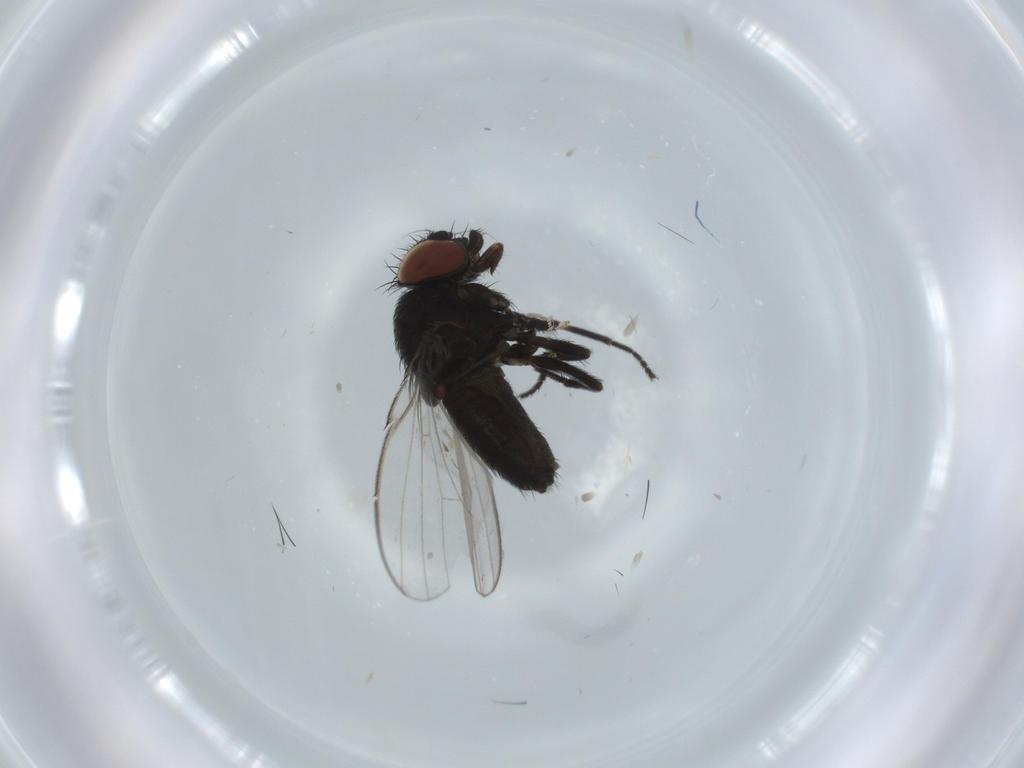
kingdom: Animalia
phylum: Arthropoda
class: Insecta
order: Diptera
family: Milichiidae
